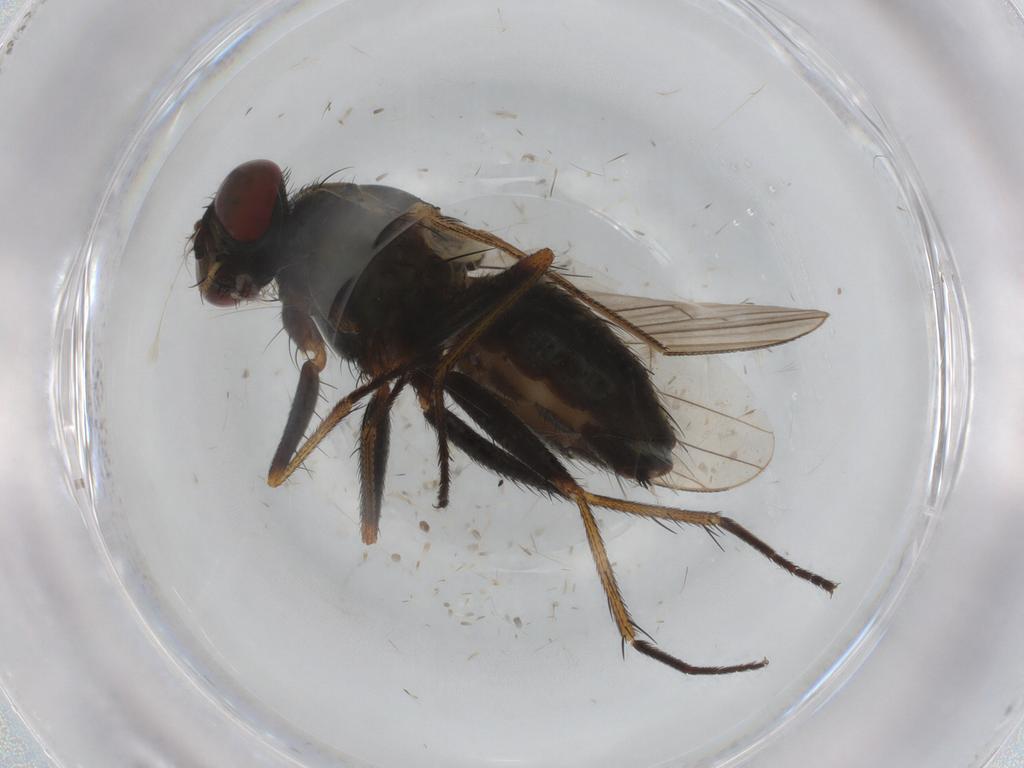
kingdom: Animalia
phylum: Arthropoda
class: Insecta
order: Diptera
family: Muscidae
